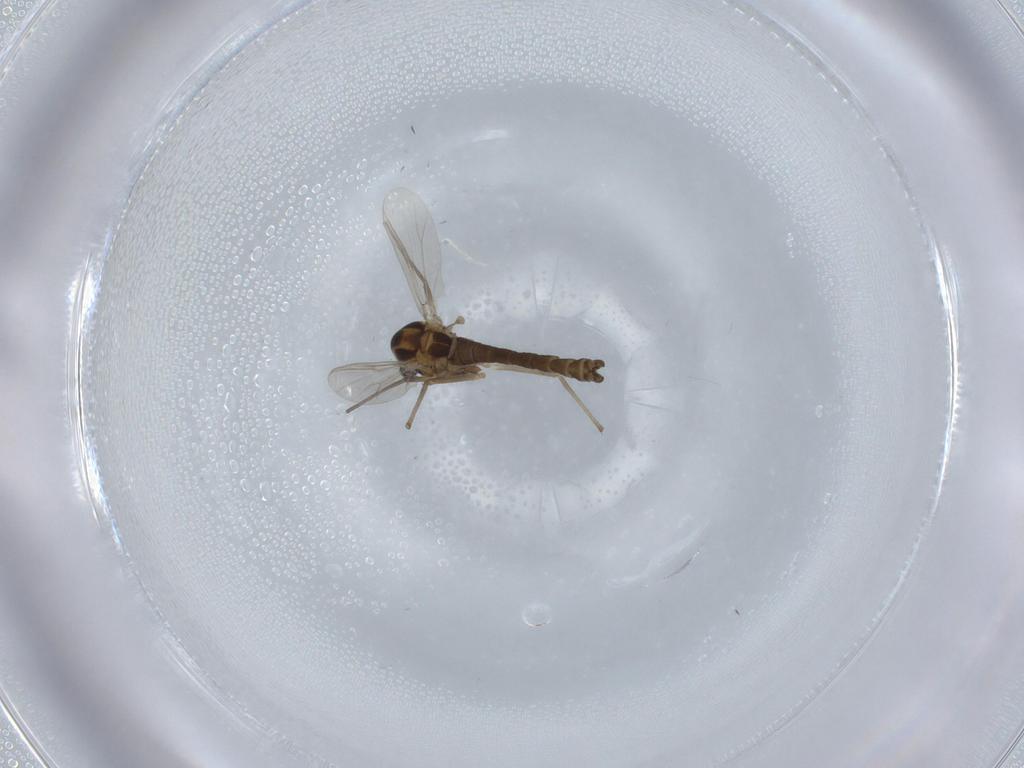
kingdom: Animalia
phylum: Arthropoda
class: Insecta
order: Diptera
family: Chironomidae
